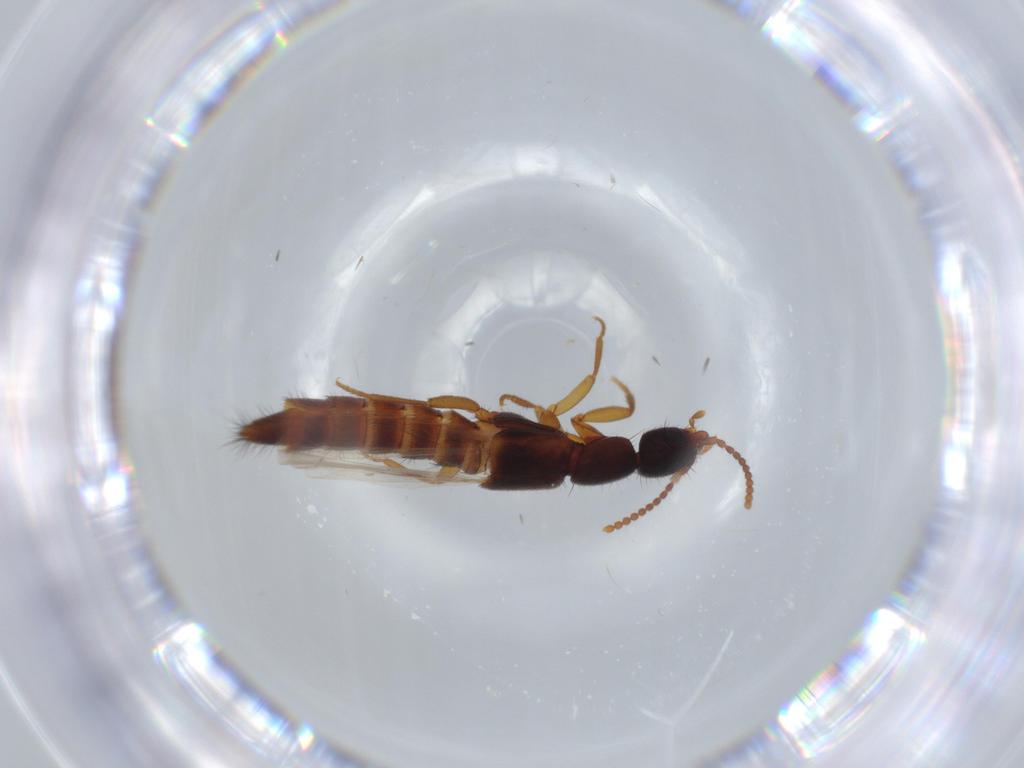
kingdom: Animalia
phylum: Arthropoda
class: Insecta
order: Coleoptera
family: Staphylinidae
